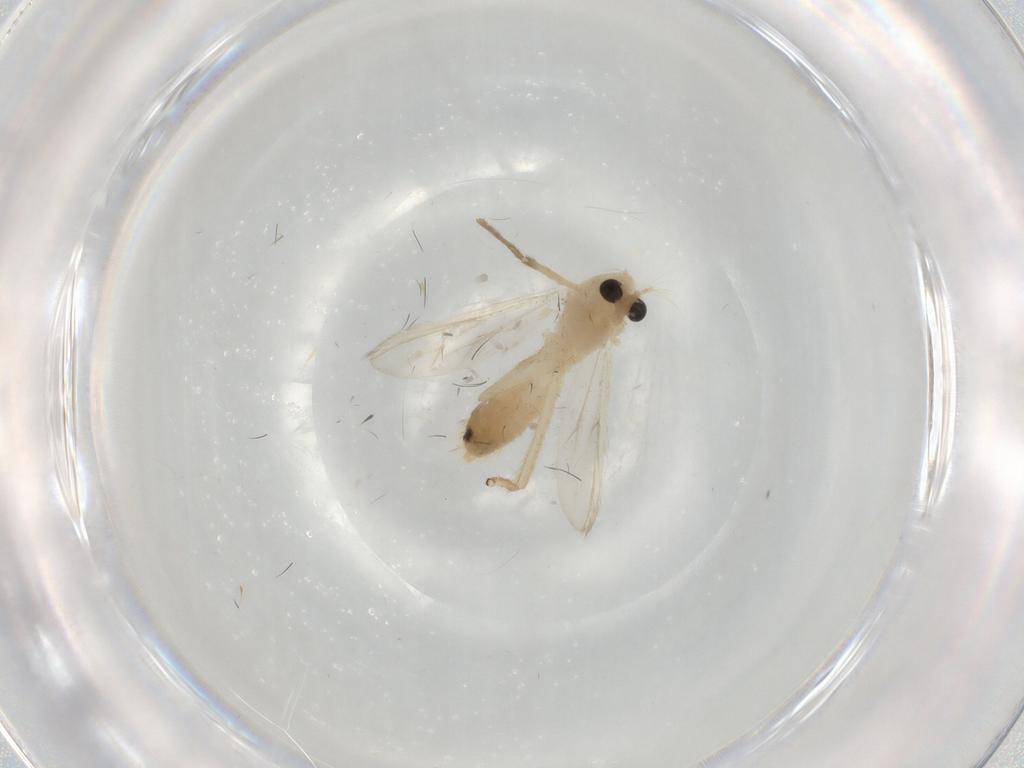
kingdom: Animalia
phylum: Arthropoda
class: Insecta
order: Diptera
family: Chironomidae
